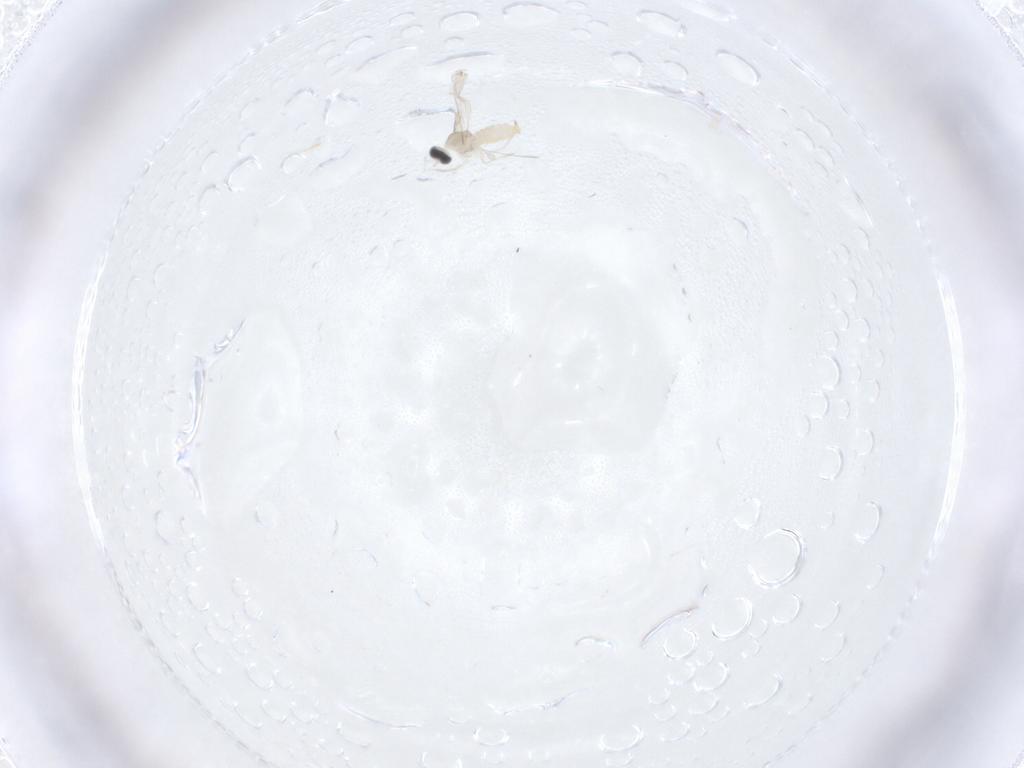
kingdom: Animalia
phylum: Arthropoda
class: Insecta
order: Diptera
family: Cecidomyiidae
